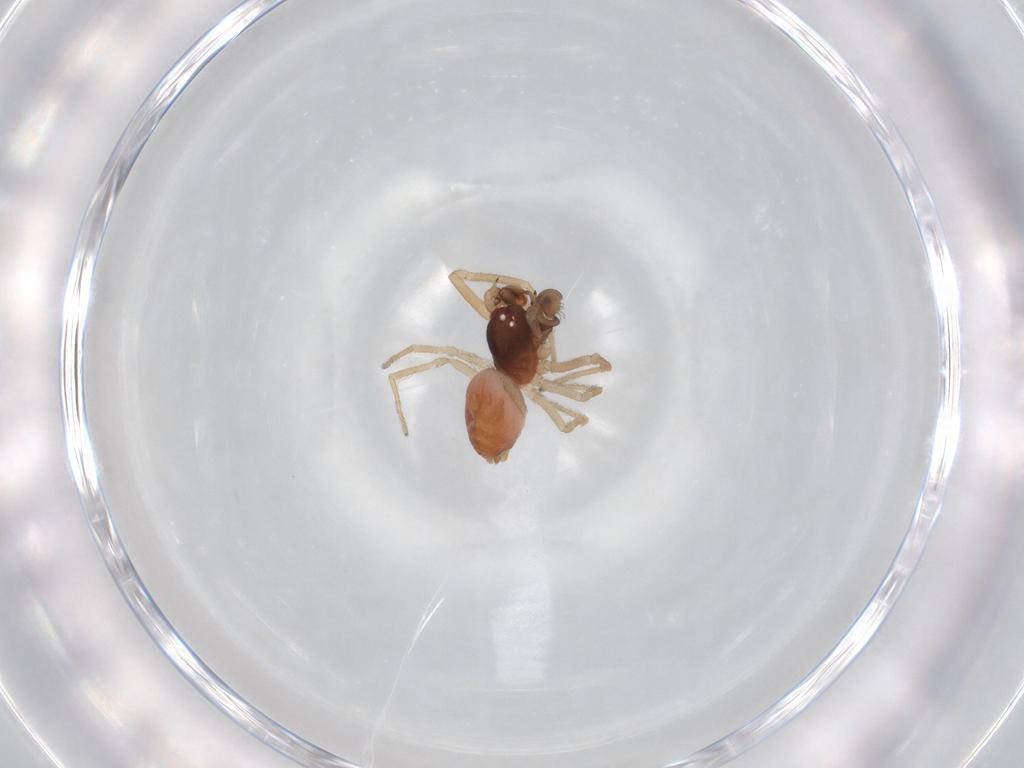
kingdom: Animalia
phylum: Arthropoda
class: Arachnida
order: Araneae
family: Dictynidae
